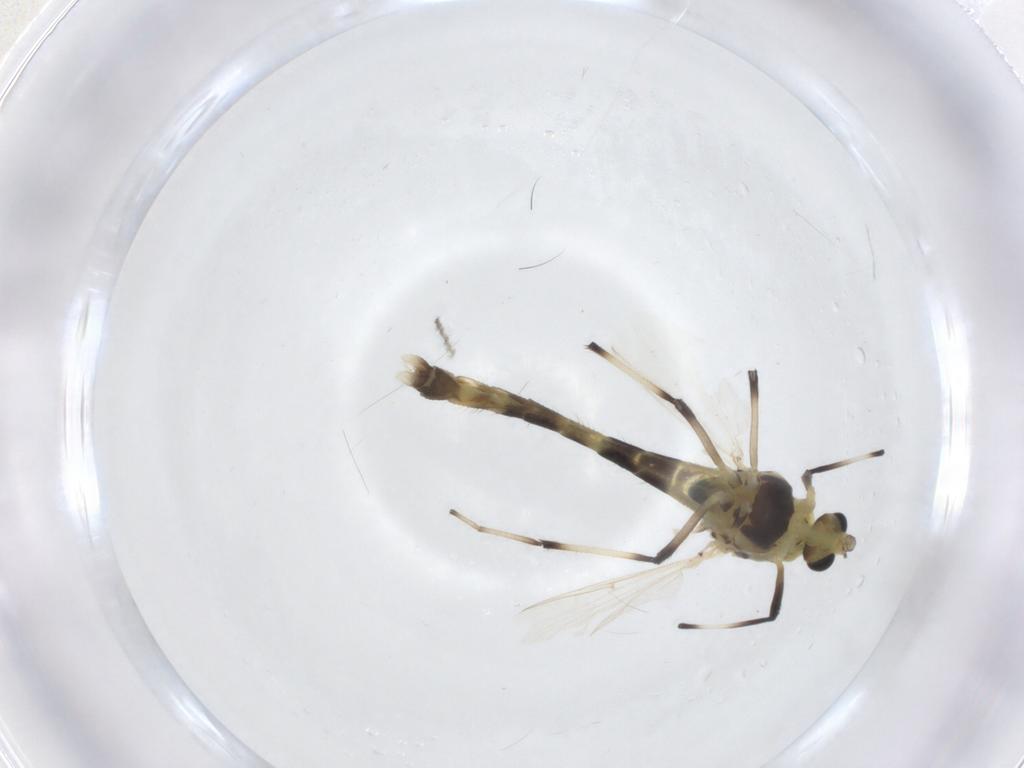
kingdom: Animalia
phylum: Arthropoda
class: Insecta
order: Diptera
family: Chironomidae
